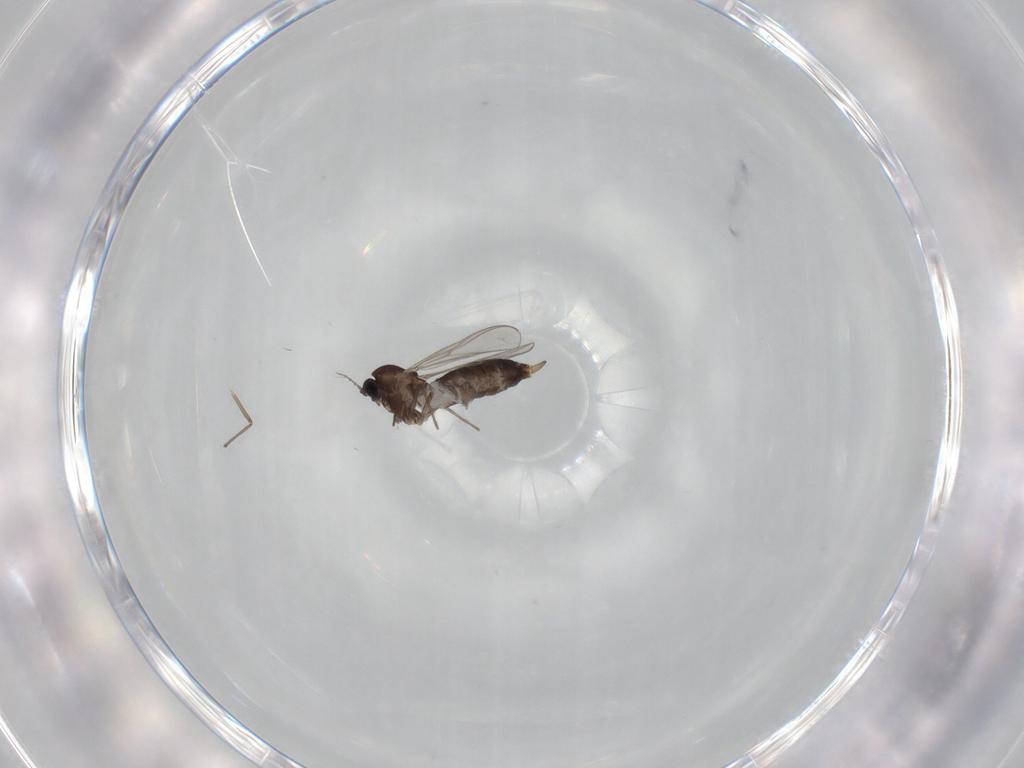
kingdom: Animalia
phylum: Arthropoda
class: Insecta
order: Diptera
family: Chironomidae
